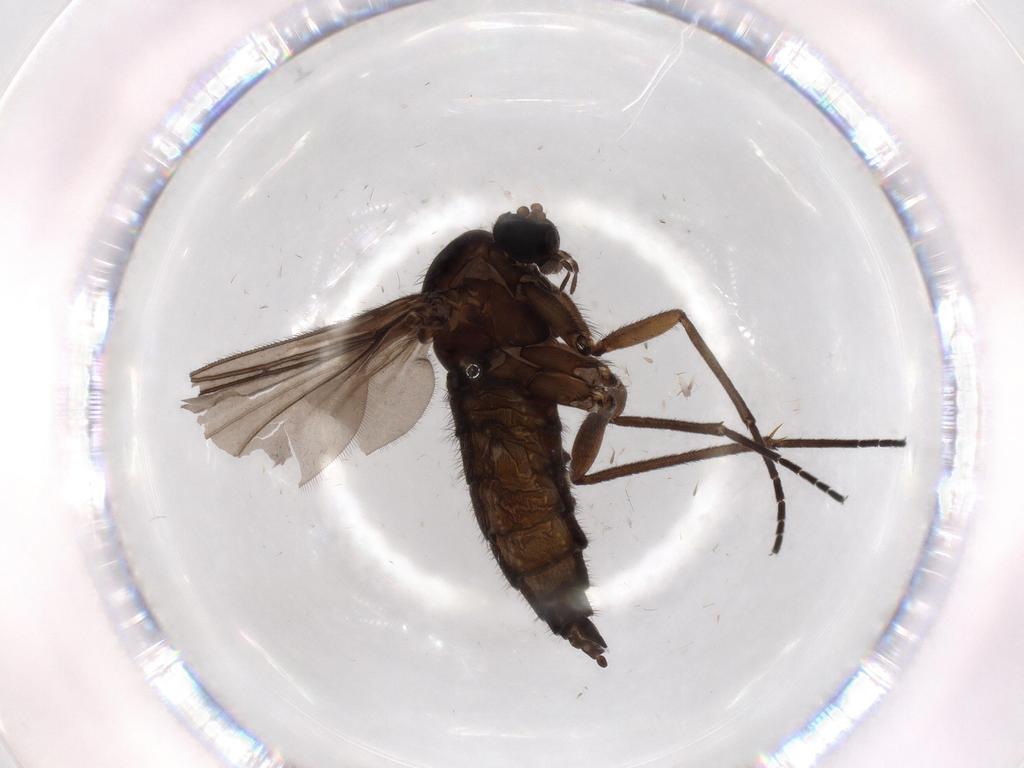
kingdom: Animalia
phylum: Arthropoda
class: Insecta
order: Diptera
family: Sciaridae
